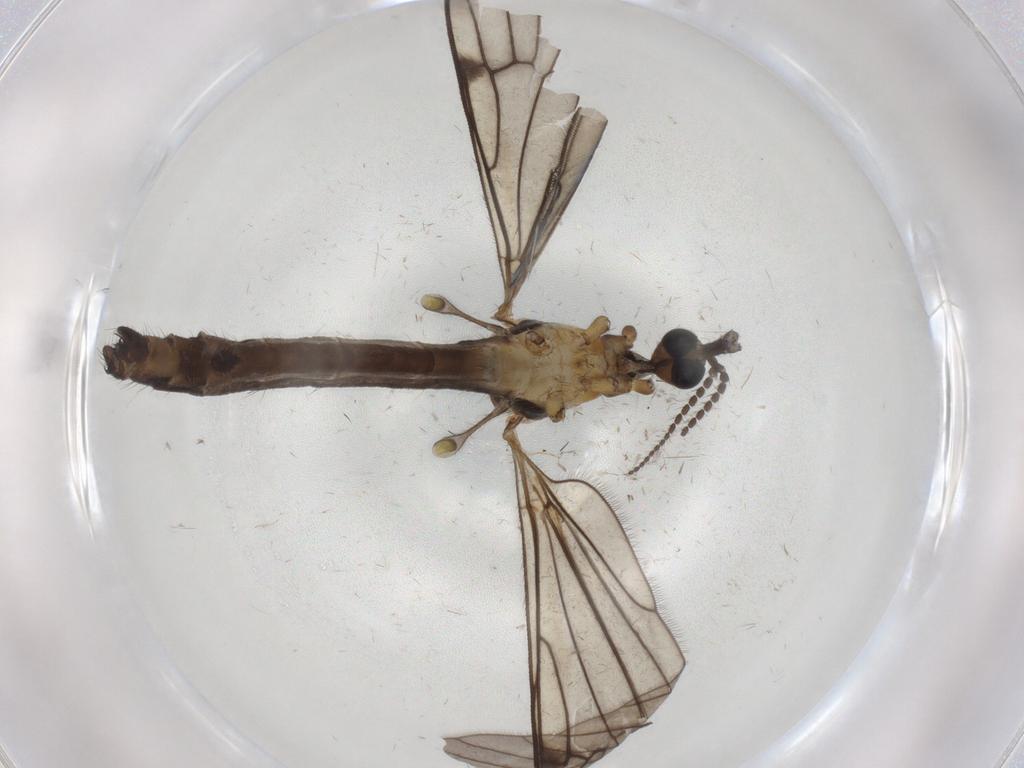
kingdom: Animalia
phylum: Arthropoda
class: Insecta
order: Diptera
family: Limoniidae
